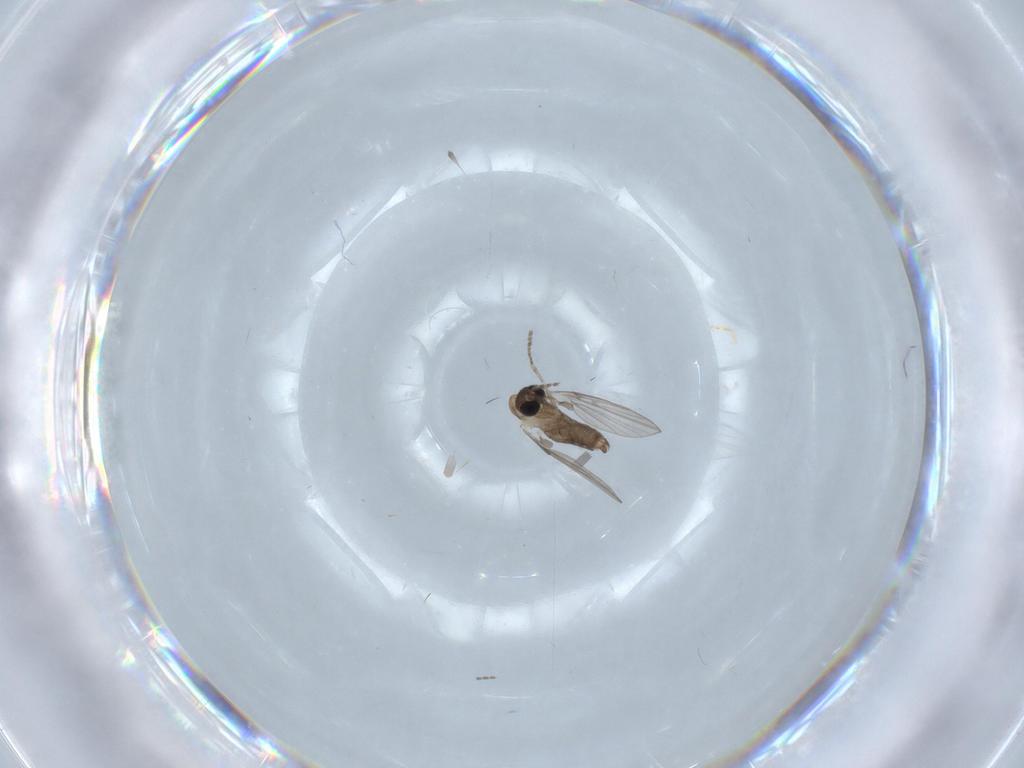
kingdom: Animalia
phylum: Arthropoda
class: Insecta
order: Diptera
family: Psychodidae
